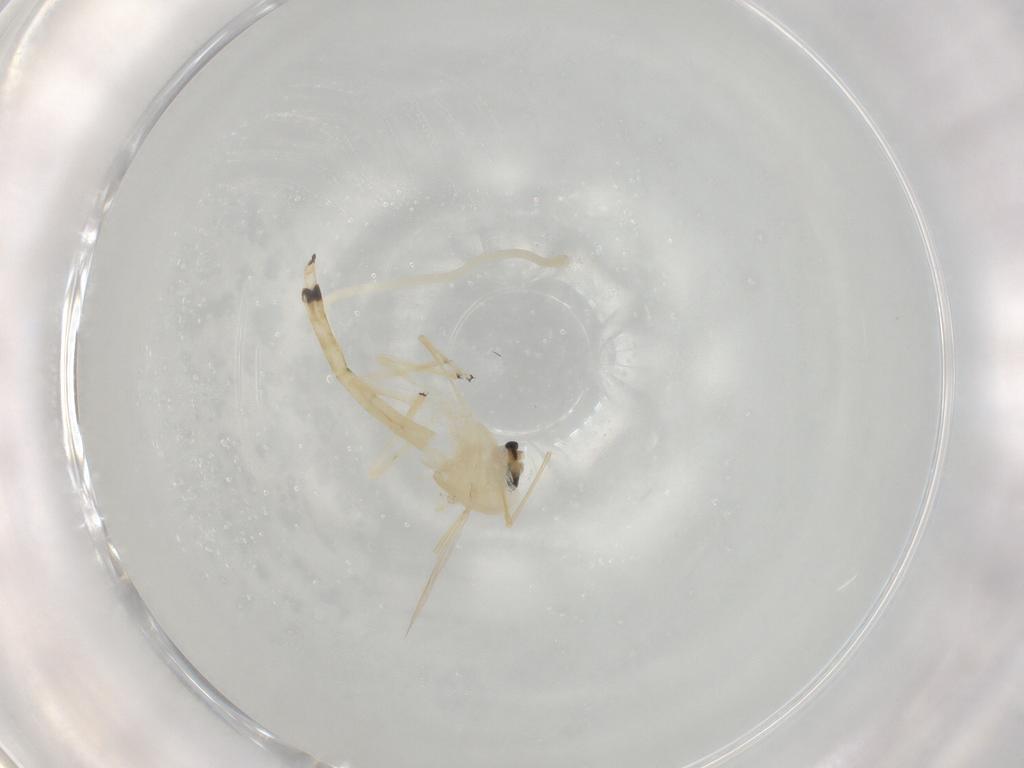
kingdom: Animalia
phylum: Arthropoda
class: Insecta
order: Diptera
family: Chironomidae
